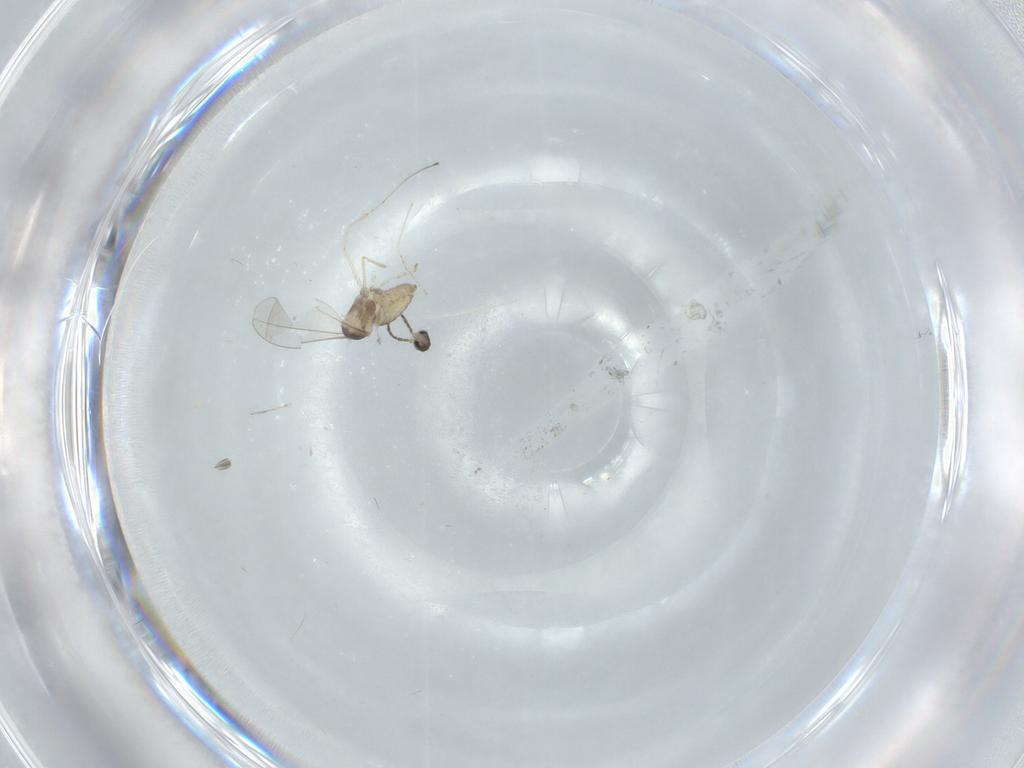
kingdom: Animalia
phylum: Arthropoda
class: Insecta
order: Diptera
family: Cecidomyiidae
